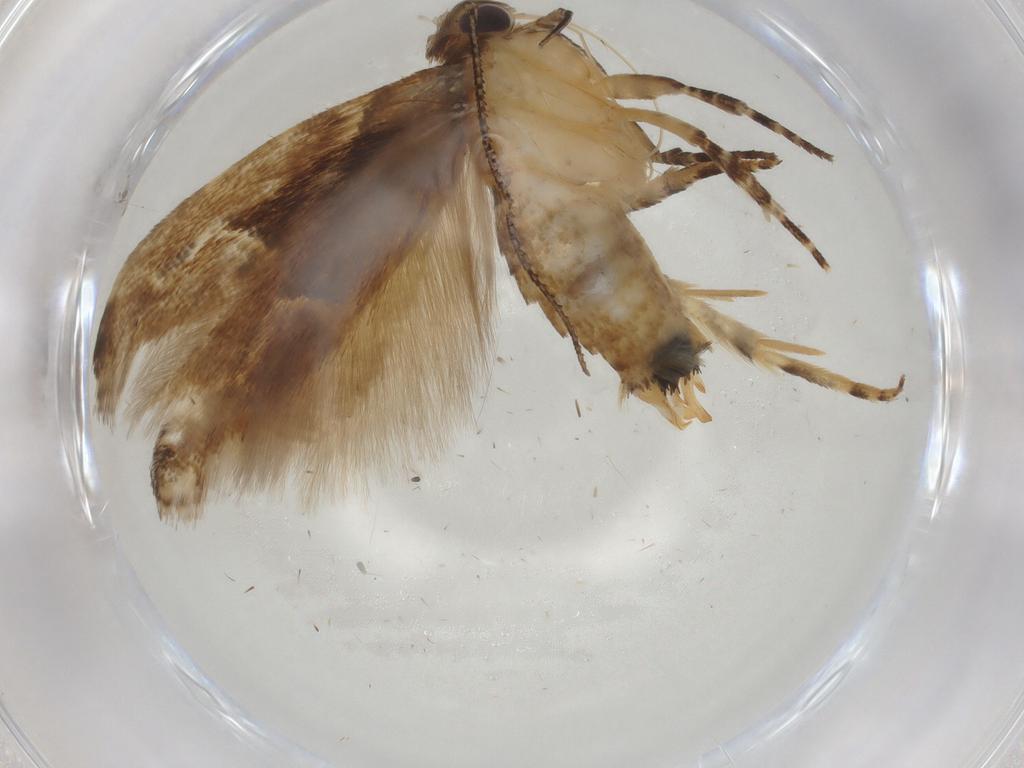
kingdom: Animalia
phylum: Arthropoda
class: Insecta
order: Lepidoptera
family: Gelechiidae
